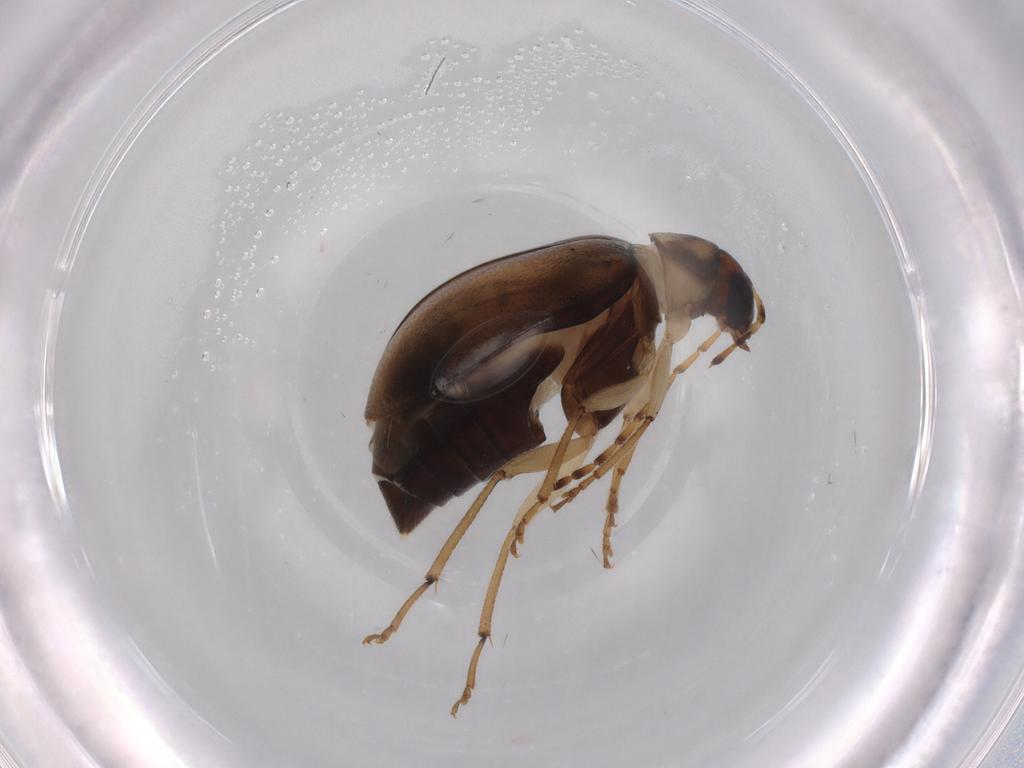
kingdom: Animalia
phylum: Arthropoda
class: Insecta
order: Coleoptera
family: Chrysomelidae
